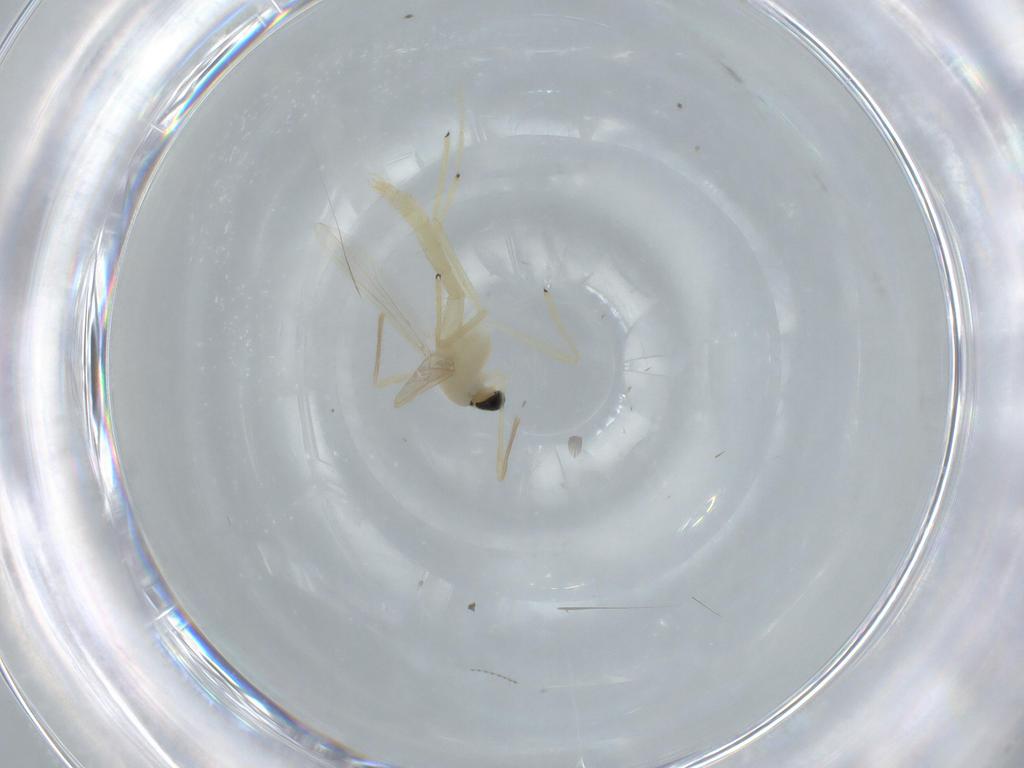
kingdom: Animalia
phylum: Arthropoda
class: Insecta
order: Diptera
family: Chironomidae
